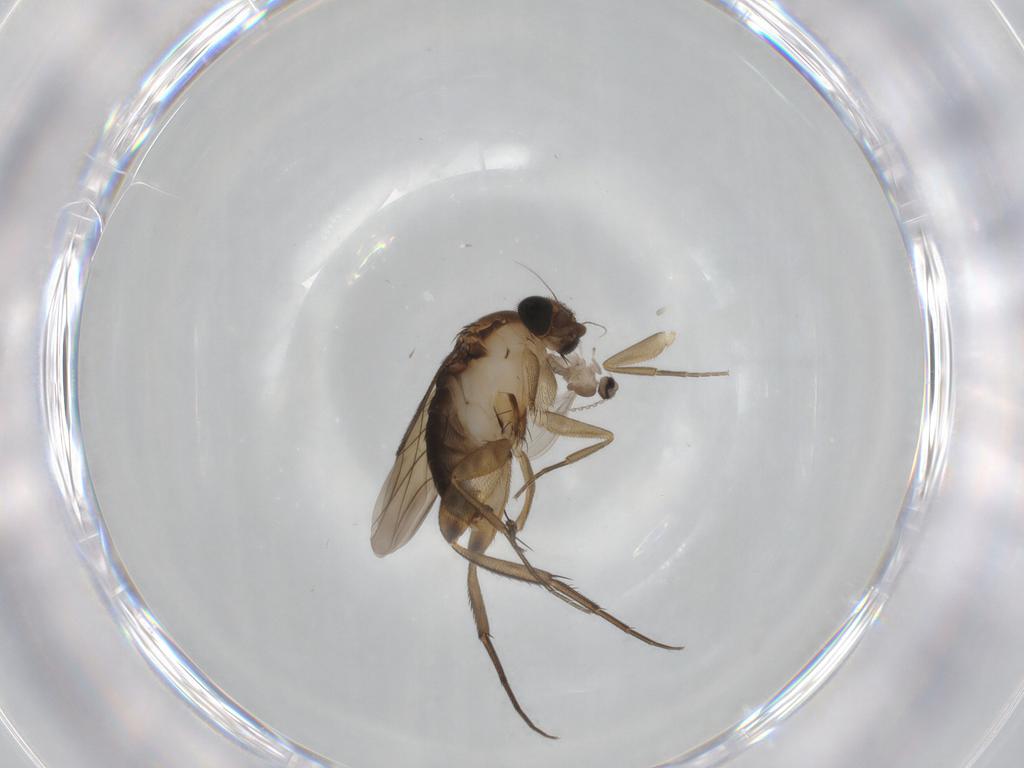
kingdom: Animalia
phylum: Arthropoda
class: Insecta
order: Diptera
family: Phoridae
